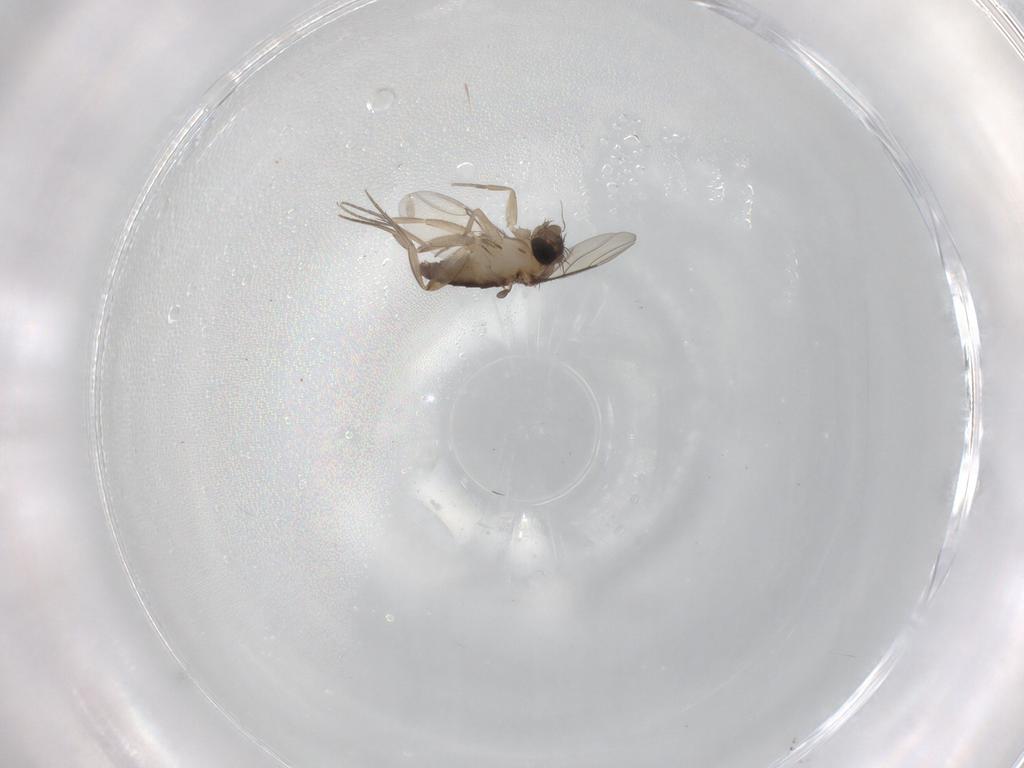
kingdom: Animalia
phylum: Arthropoda
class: Insecta
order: Diptera
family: Phoridae
